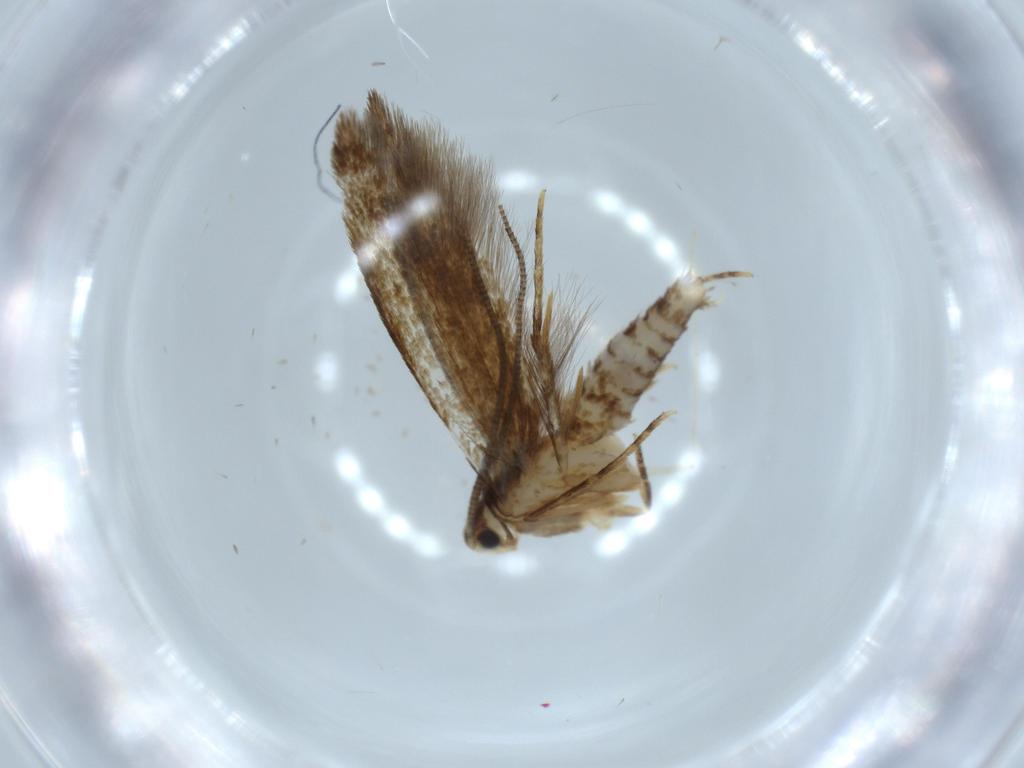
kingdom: Animalia
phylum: Arthropoda
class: Insecta
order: Lepidoptera
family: Tineidae
